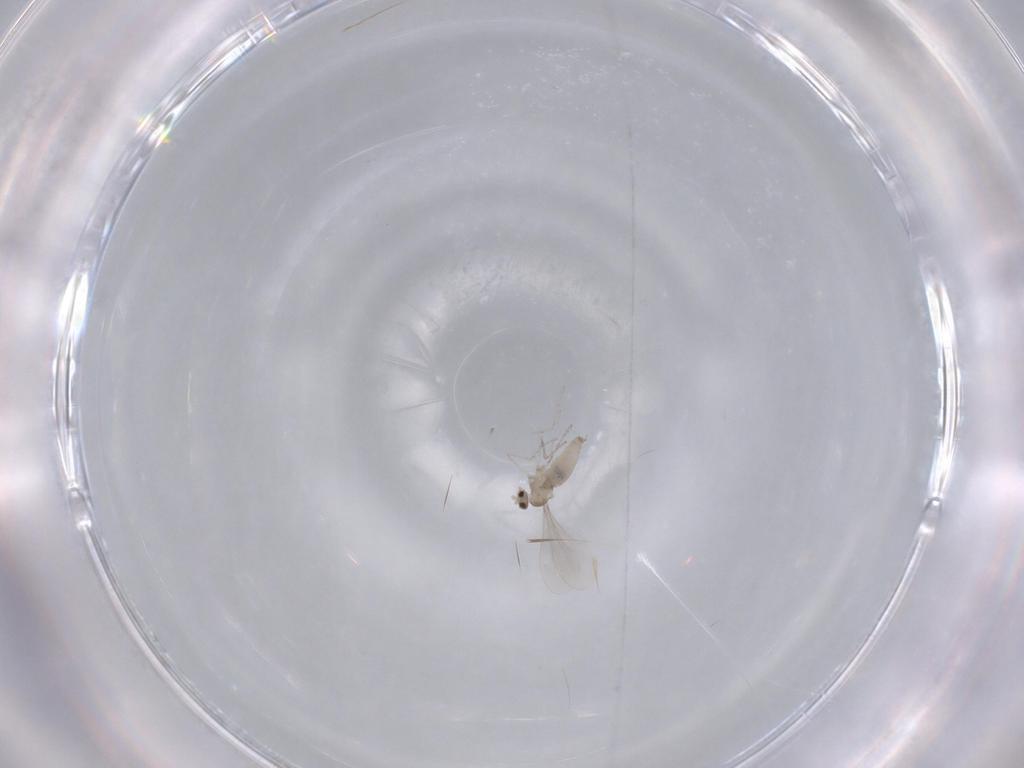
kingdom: Animalia
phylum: Arthropoda
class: Insecta
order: Diptera
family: Cecidomyiidae
